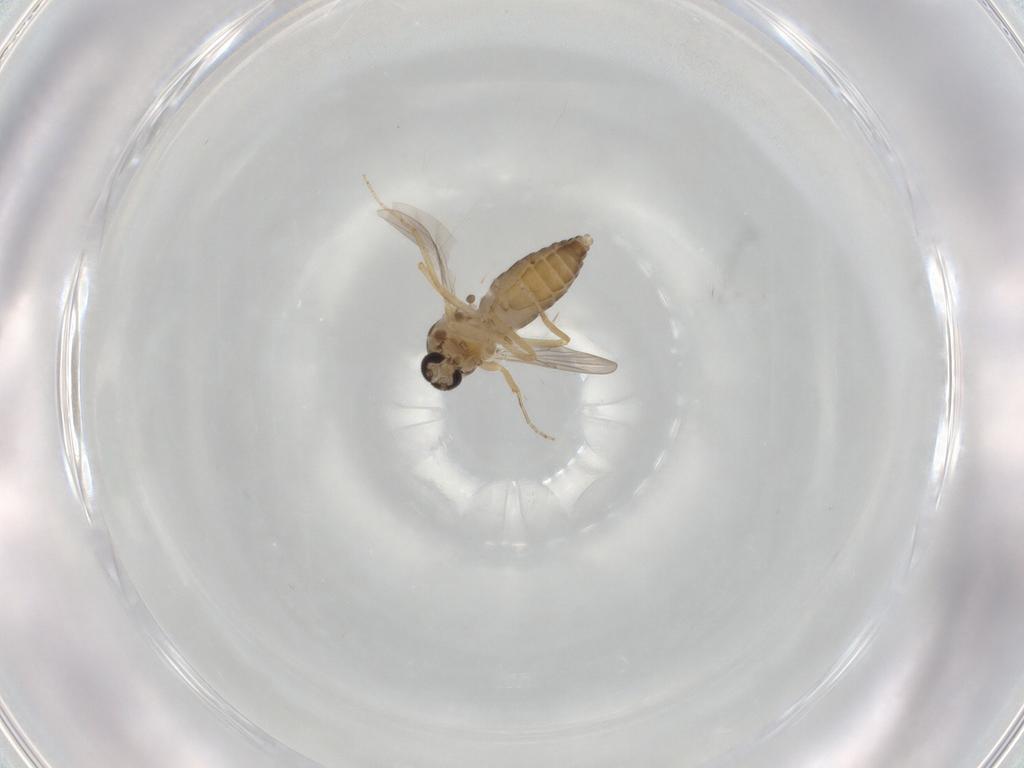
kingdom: Animalia
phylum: Arthropoda
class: Insecta
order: Diptera
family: Ceratopogonidae
